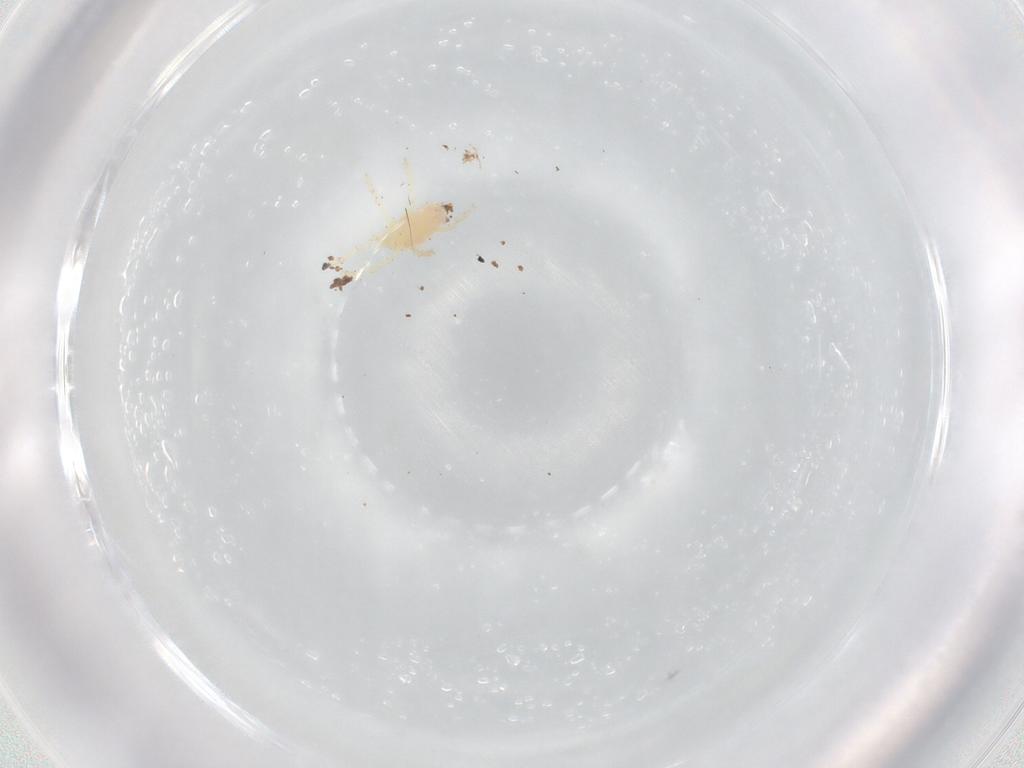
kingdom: Animalia
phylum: Arthropoda
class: Arachnida
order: Trombidiformes
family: Trombidiidae
